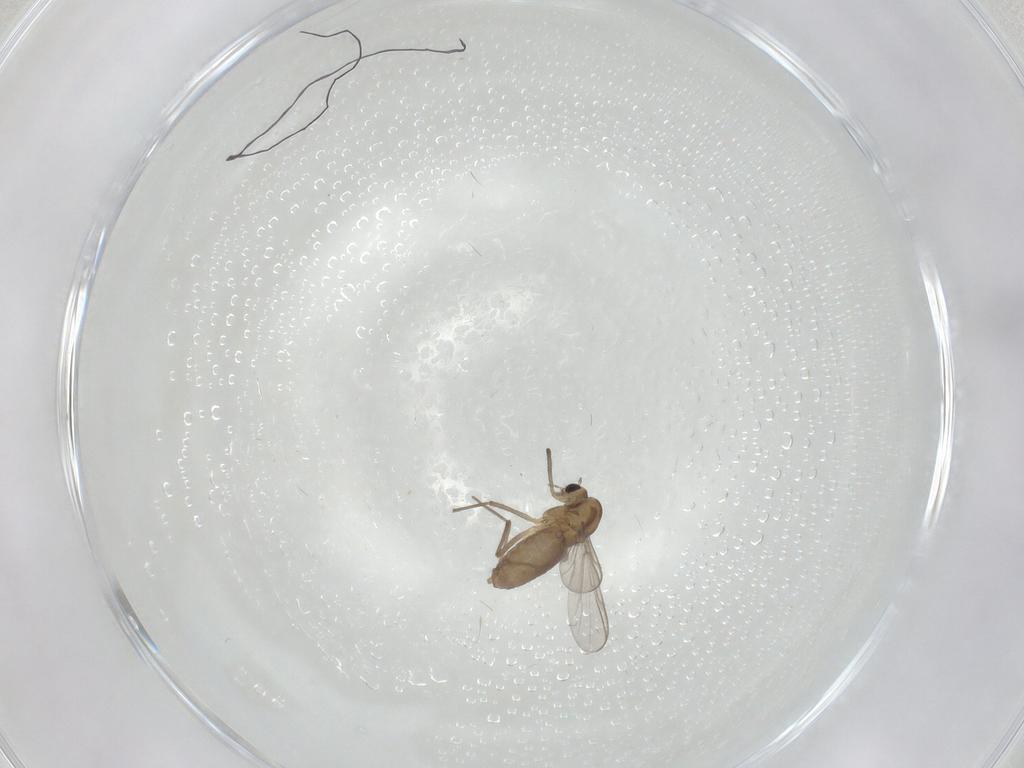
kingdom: Animalia
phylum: Arthropoda
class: Insecta
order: Diptera
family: Chironomidae
